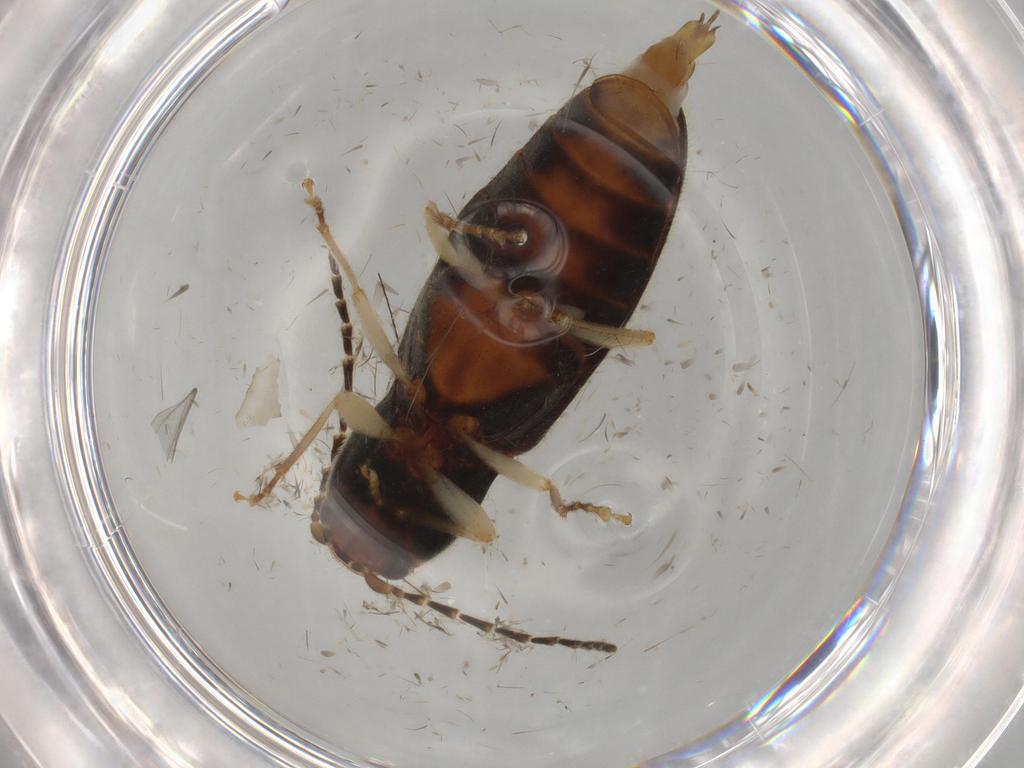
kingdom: Animalia
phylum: Arthropoda
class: Insecta
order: Coleoptera
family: Elateridae
